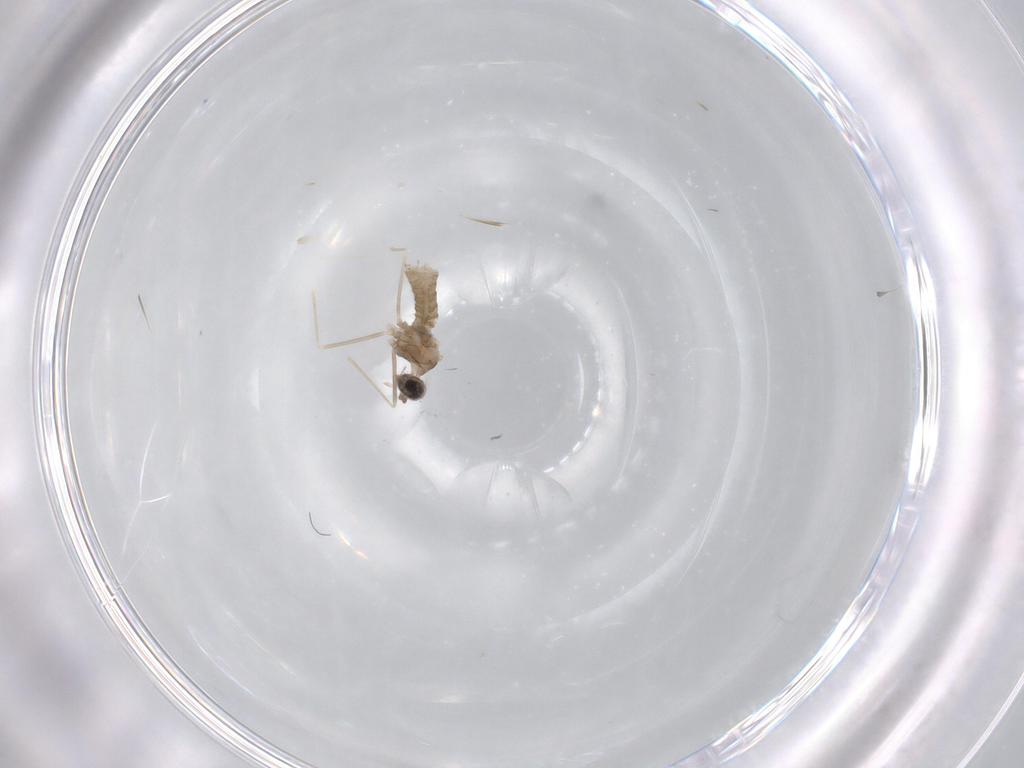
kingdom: Animalia
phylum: Arthropoda
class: Insecta
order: Diptera
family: Cecidomyiidae
